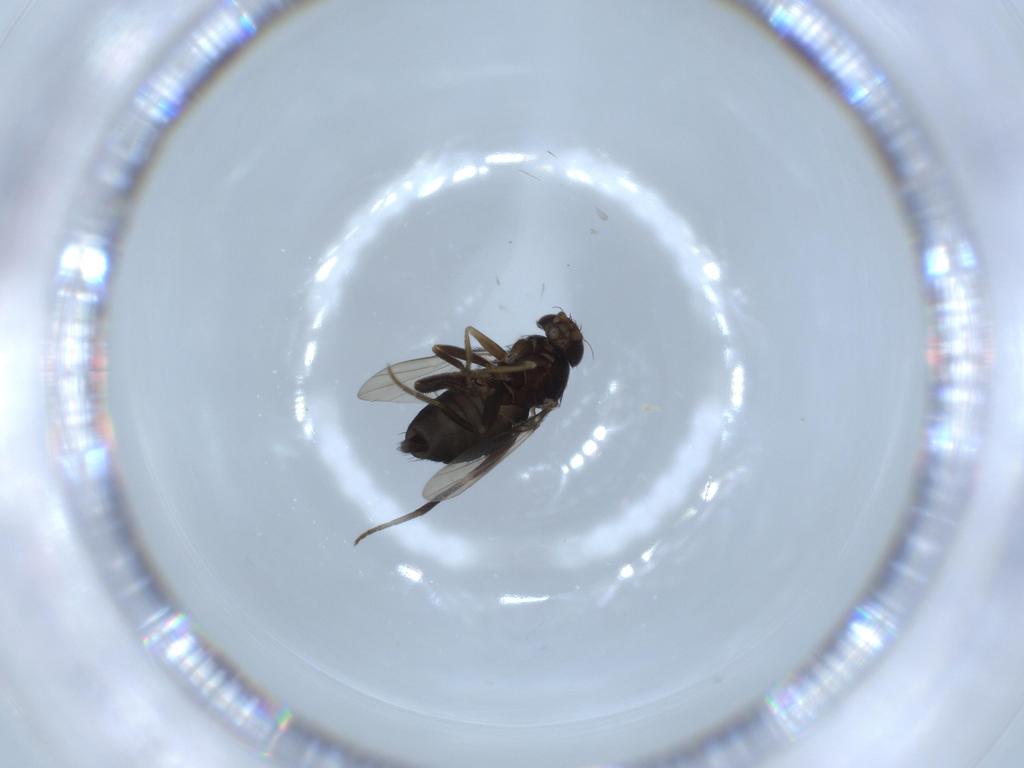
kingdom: Animalia
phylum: Arthropoda
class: Insecta
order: Diptera
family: Phoridae
